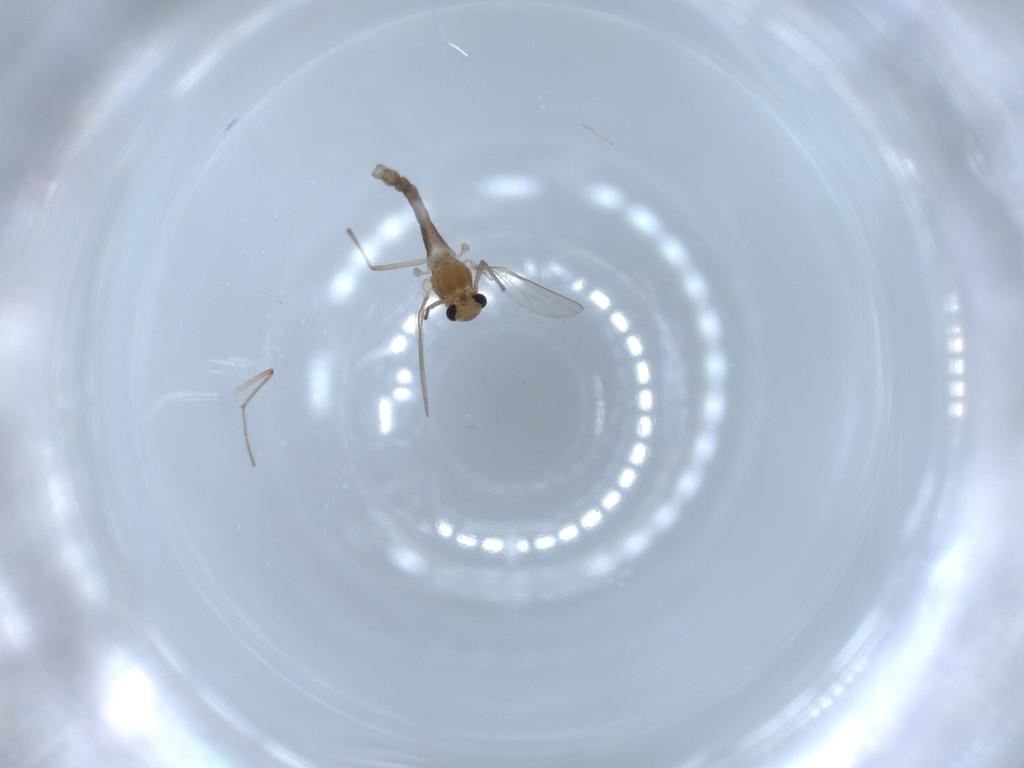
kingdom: Animalia
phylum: Arthropoda
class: Insecta
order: Diptera
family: Chironomidae
